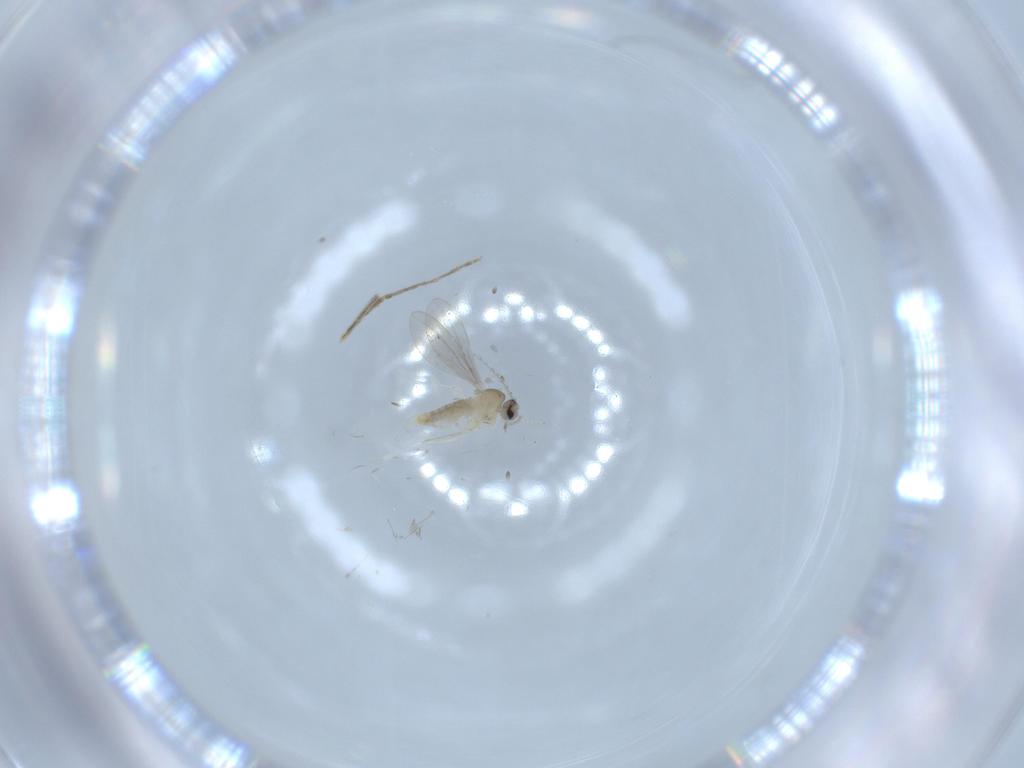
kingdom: Animalia
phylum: Arthropoda
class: Insecta
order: Diptera
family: Cecidomyiidae
